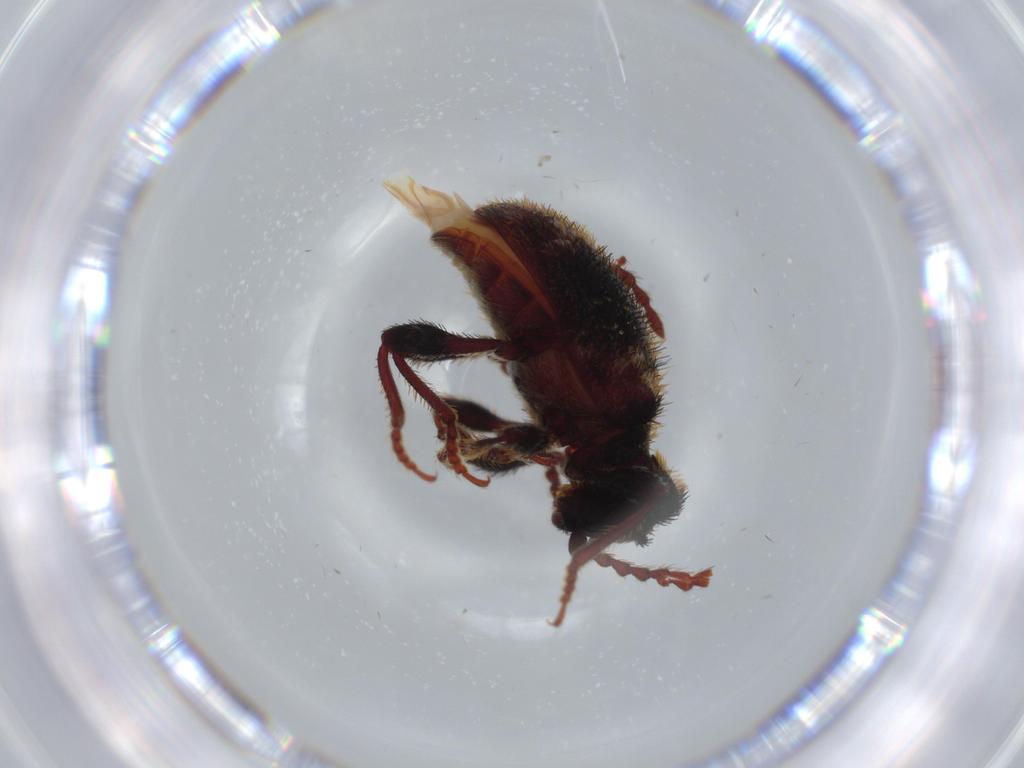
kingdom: Animalia
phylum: Arthropoda
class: Insecta
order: Coleoptera
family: Ptinidae
